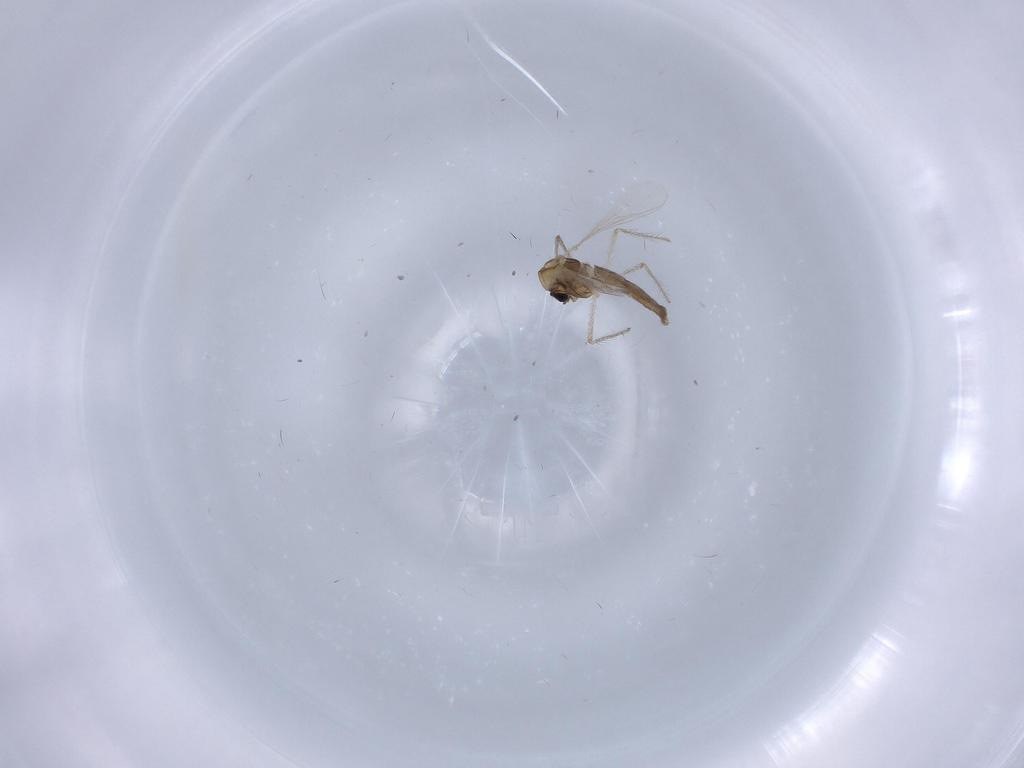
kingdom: Animalia
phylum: Arthropoda
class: Insecta
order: Diptera
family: Chironomidae
